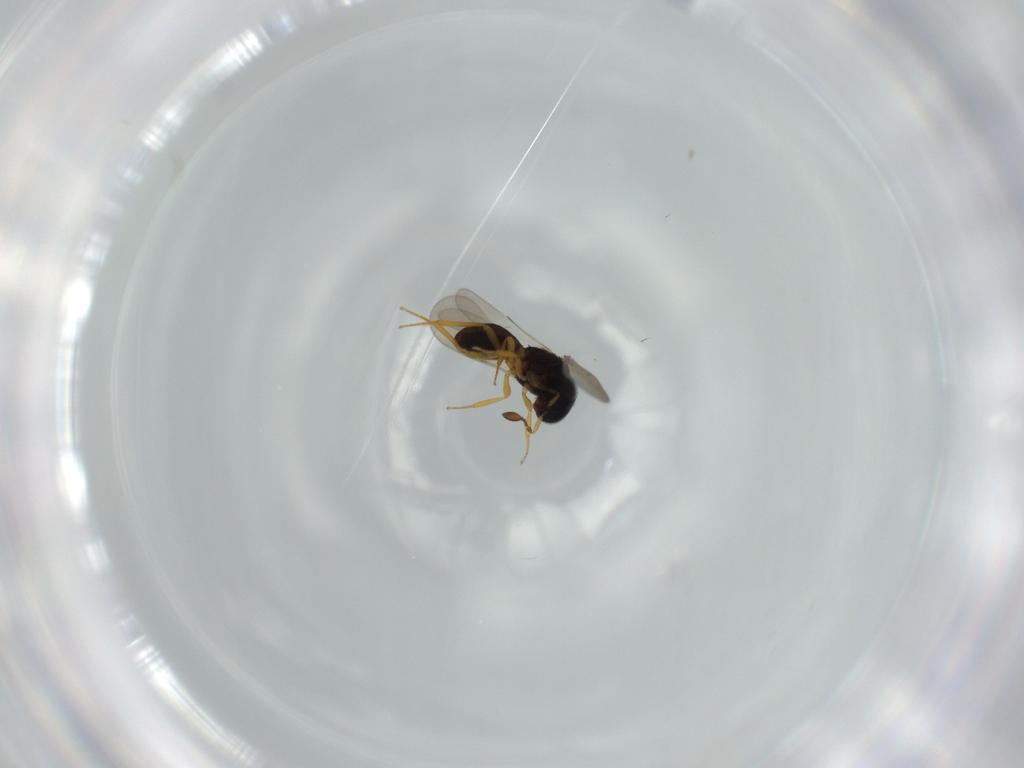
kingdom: Animalia
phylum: Arthropoda
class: Insecta
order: Hymenoptera
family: Scelionidae
